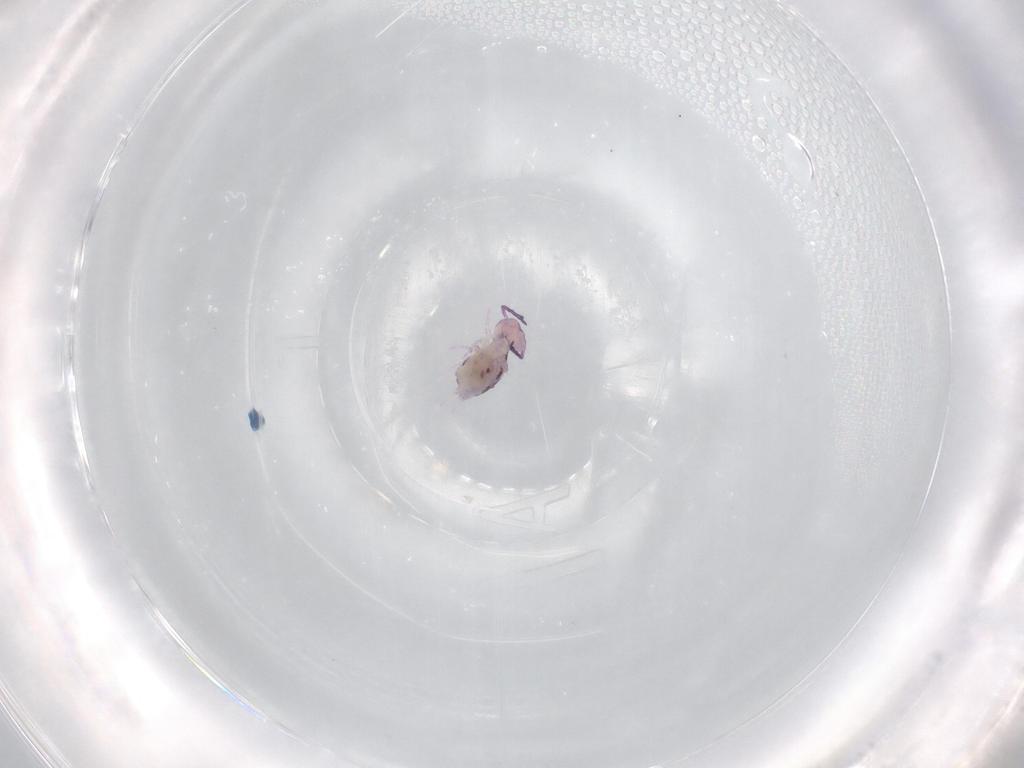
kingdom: Animalia
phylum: Arthropoda
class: Collembola
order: Symphypleona
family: Dicyrtomidae
